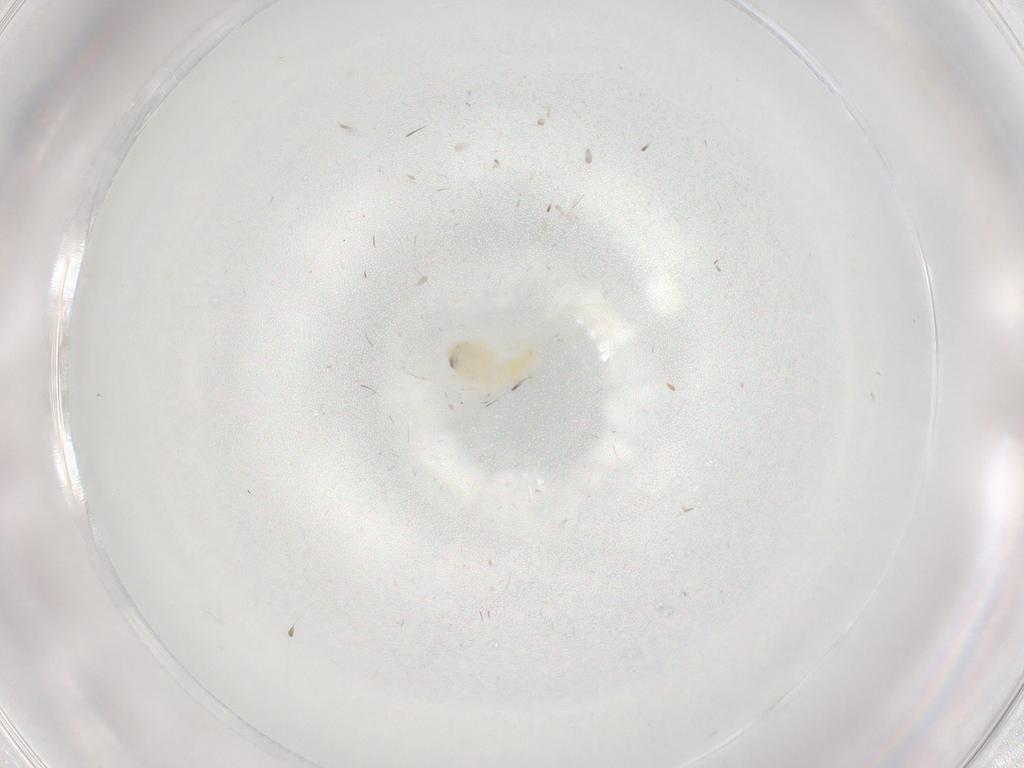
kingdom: Animalia
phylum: Arthropoda
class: Insecta
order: Hemiptera
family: Aleyrodidae
